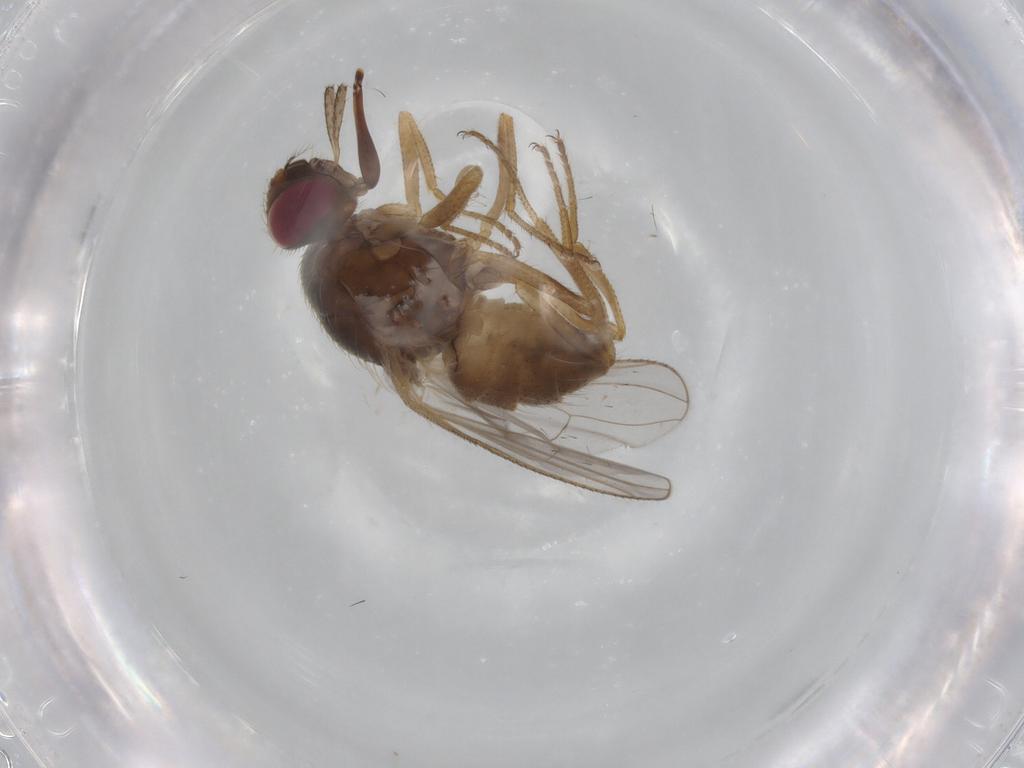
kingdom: Animalia
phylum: Arthropoda
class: Insecta
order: Diptera
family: Muscidae
